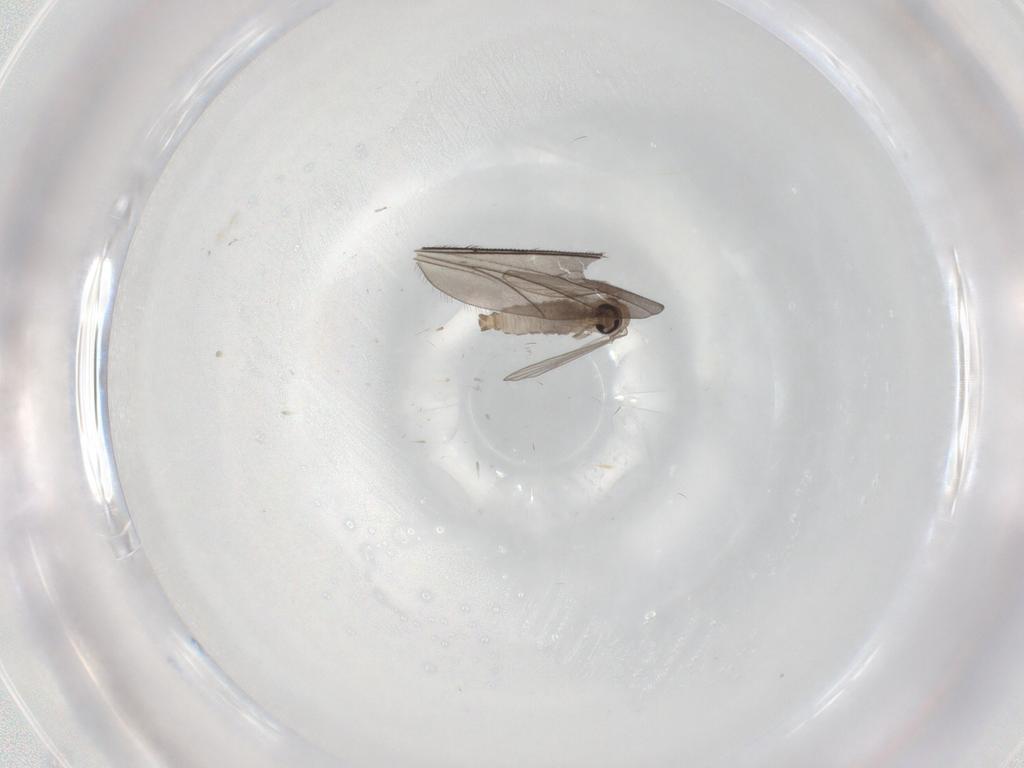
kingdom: Animalia
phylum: Arthropoda
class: Insecta
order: Diptera
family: Psychodidae
